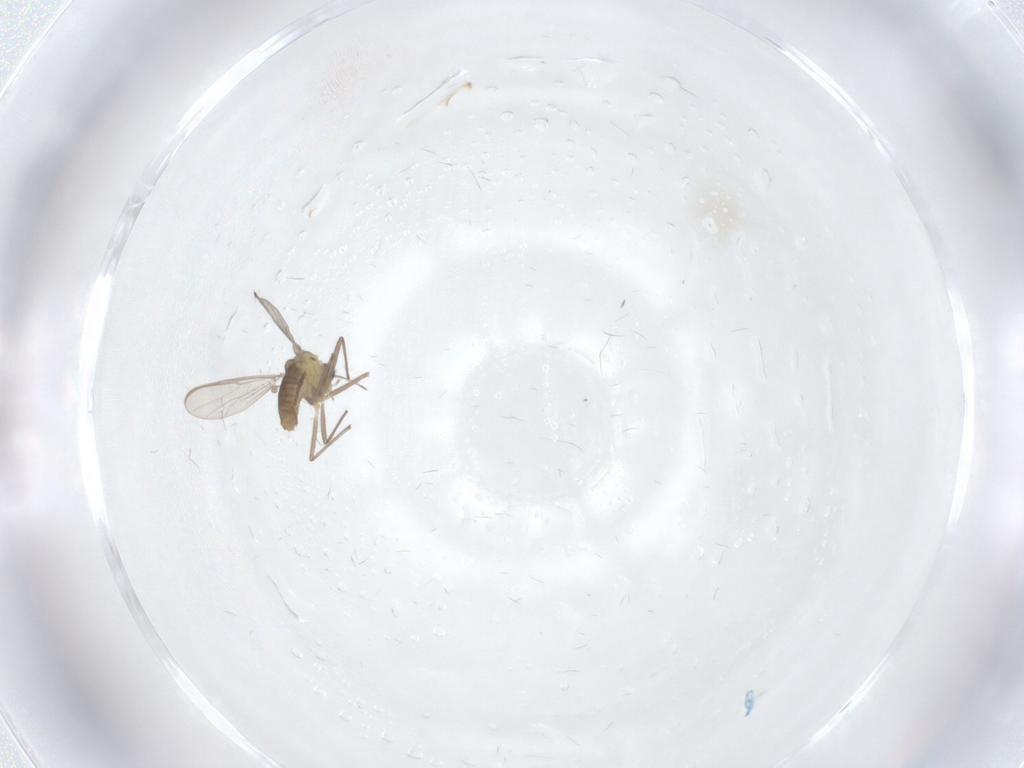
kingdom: Animalia
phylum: Arthropoda
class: Insecta
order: Diptera
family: Chironomidae
